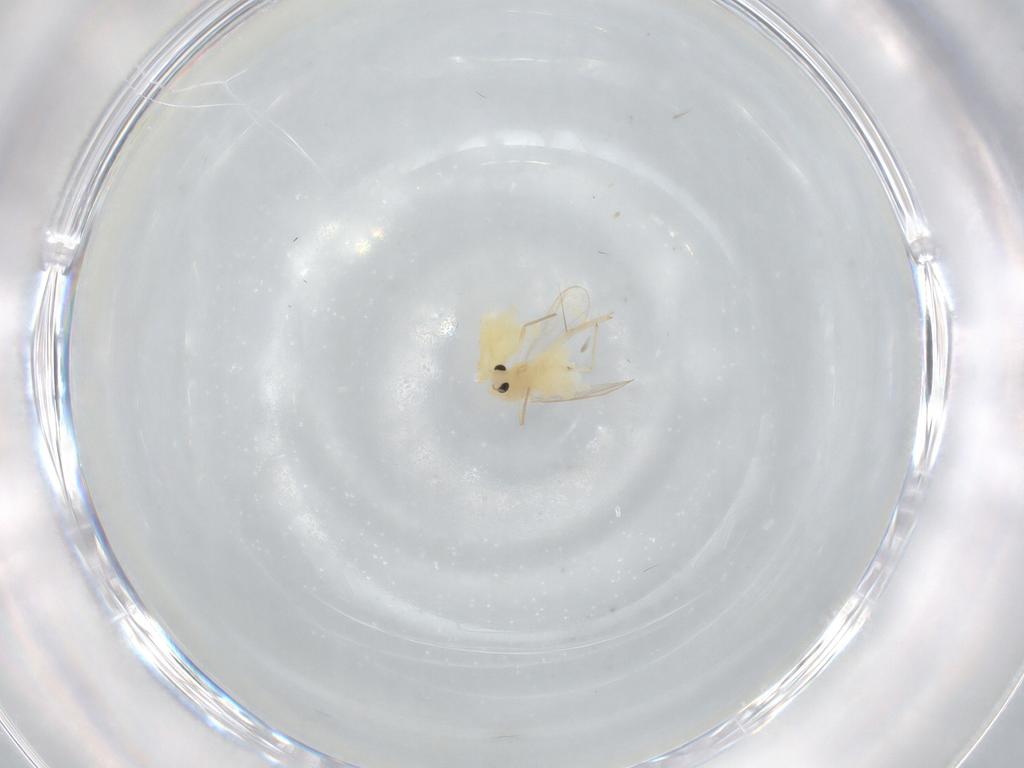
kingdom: Animalia
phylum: Arthropoda
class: Insecta
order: Diptera
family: Chironomidae
